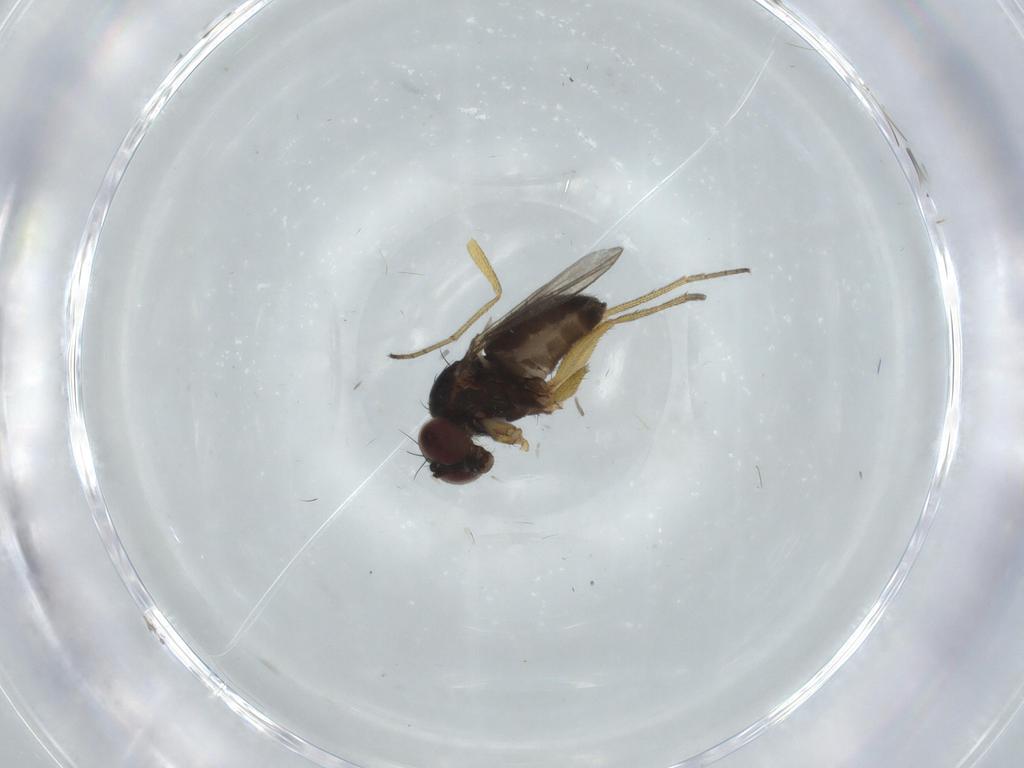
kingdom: Animalia
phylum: Arthropoda
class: Insecta
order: Diptera
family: Dolichopodidae
